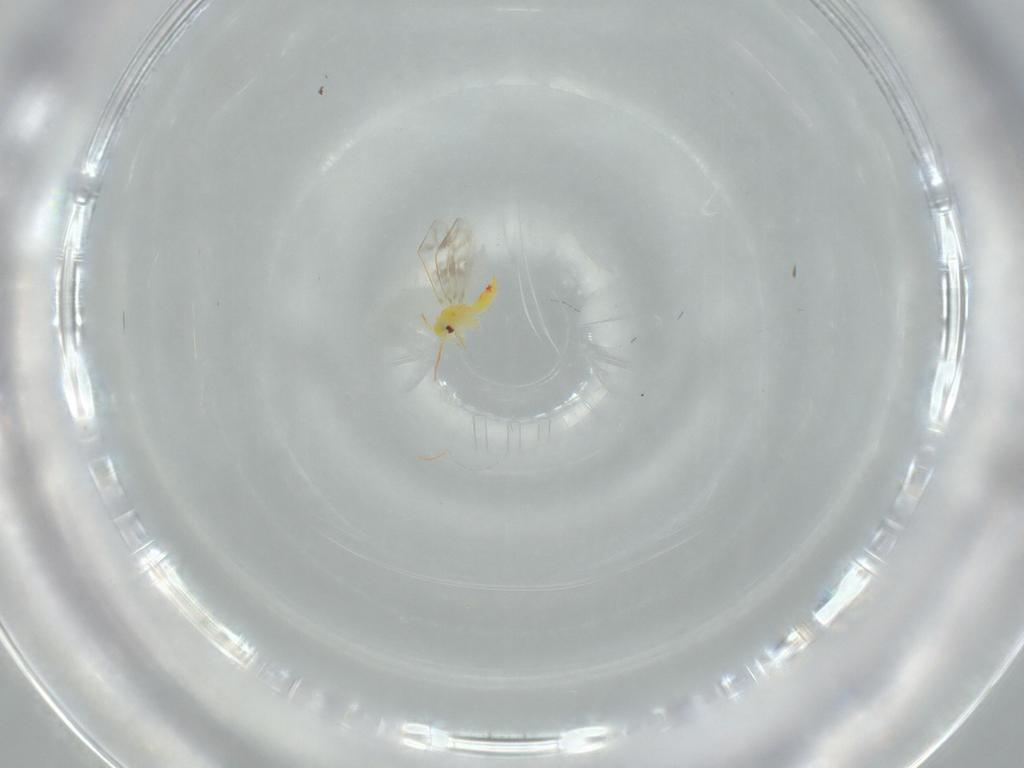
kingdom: Animalia
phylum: Arthropoda
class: Insecta
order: Hemiptera
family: Aleyrodidae
